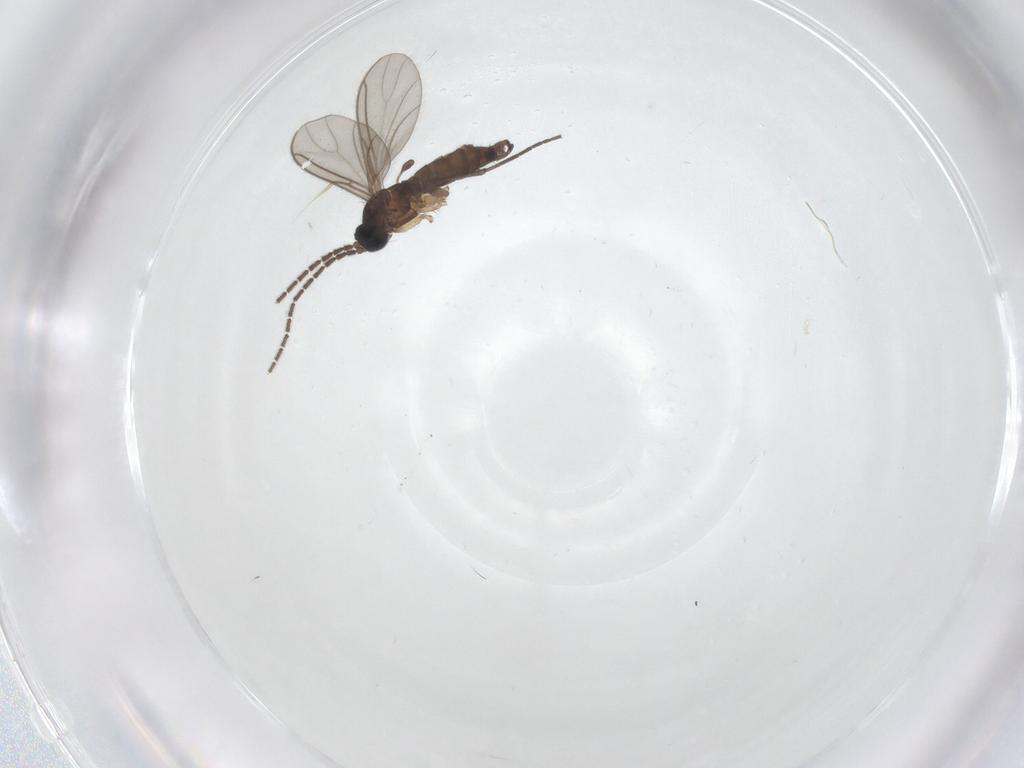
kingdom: Animalia
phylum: Arthropoda
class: Insecta
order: Diptera
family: Sciaridae
